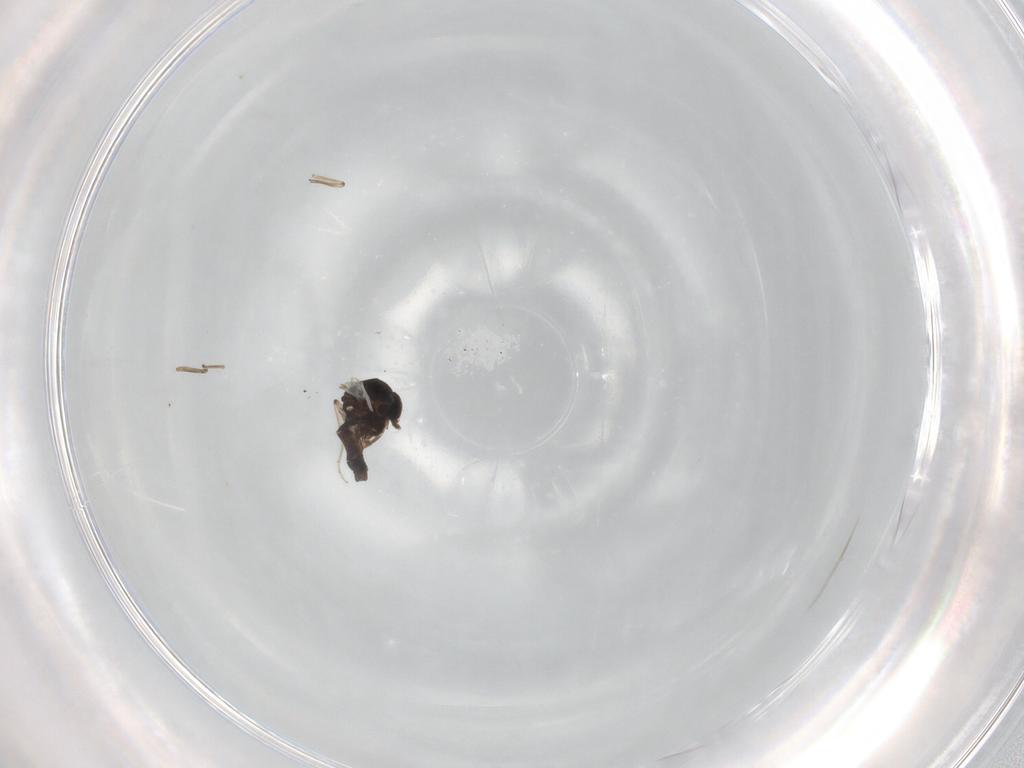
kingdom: Animalia
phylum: Arthropoda
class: Insecta
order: Diptera
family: Ceratopogonidae
